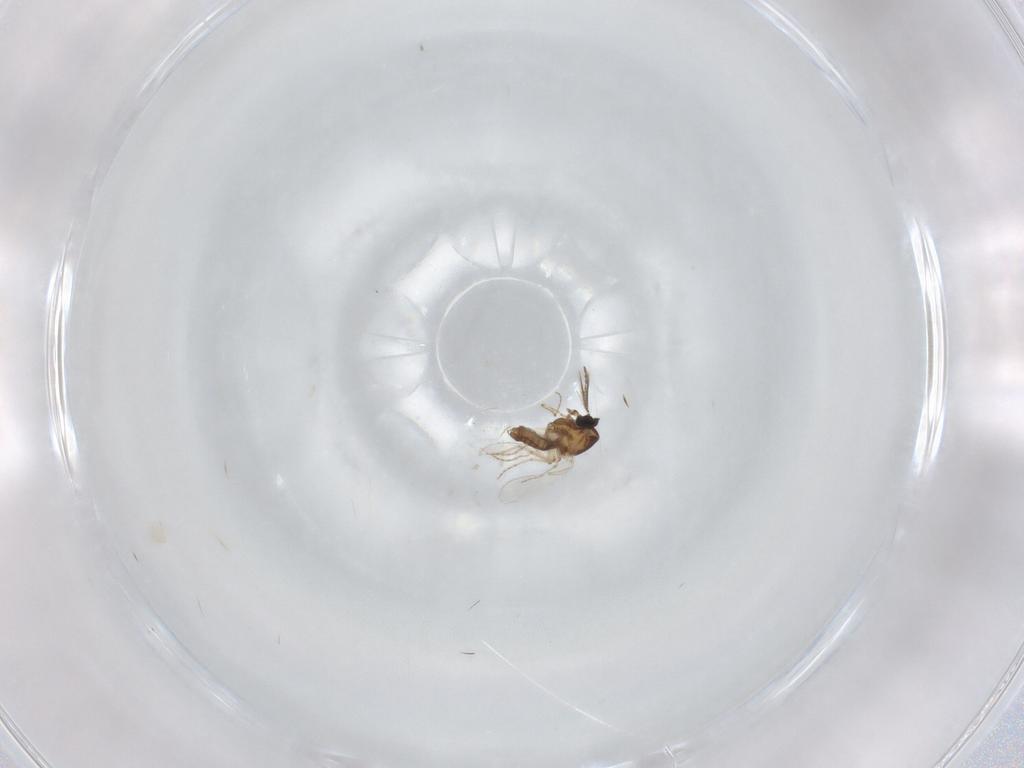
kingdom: Animalia
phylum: Arthropoda
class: Insecta
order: Diptera
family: Ceratopogonidae
